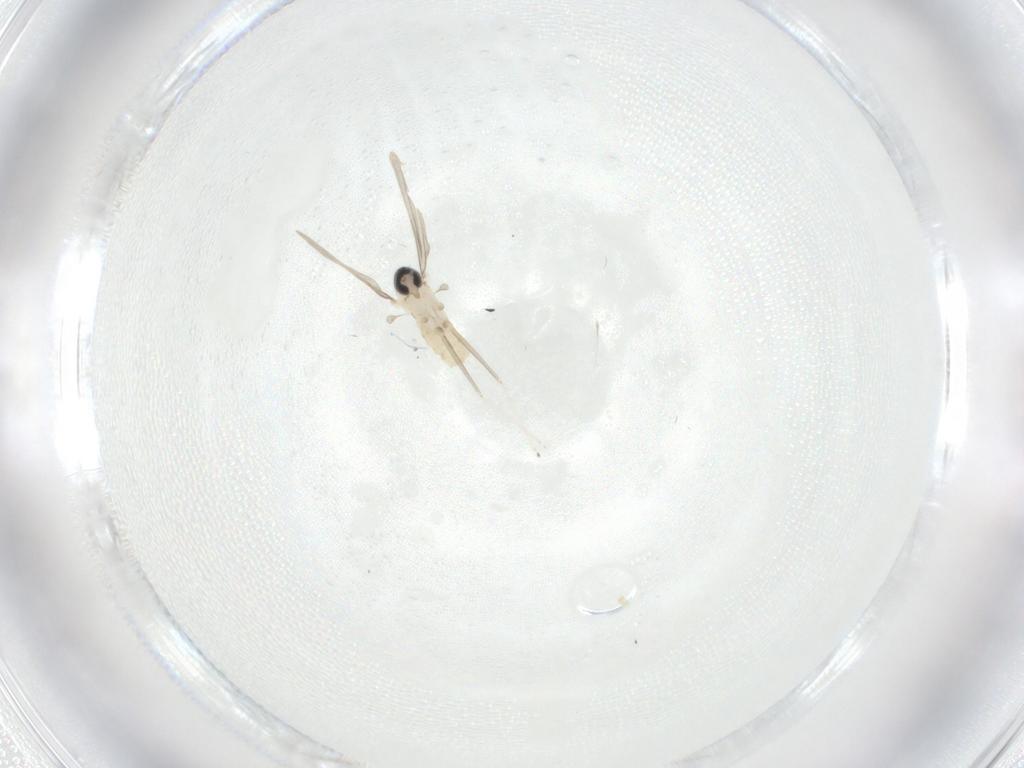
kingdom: Animalia
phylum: Arthropoda
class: Insecta
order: Diptera
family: Cecidomyiidae
